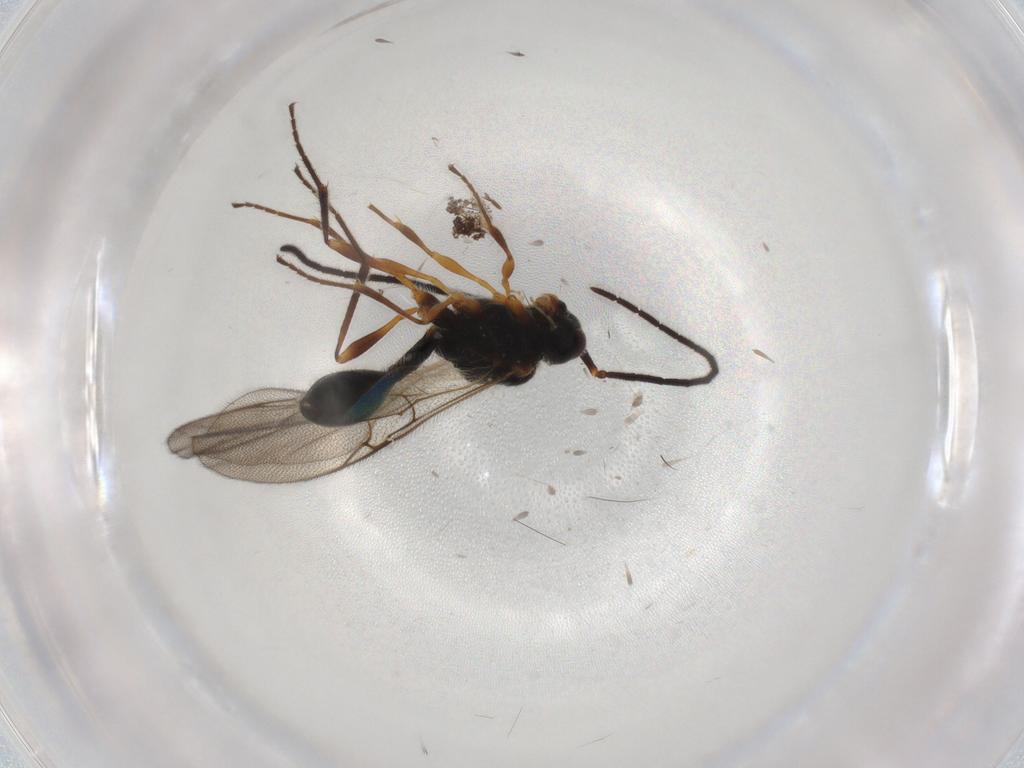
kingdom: Animalia
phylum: Arthropoda
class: Insecta
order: Hymenoptera
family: Diapriidae
